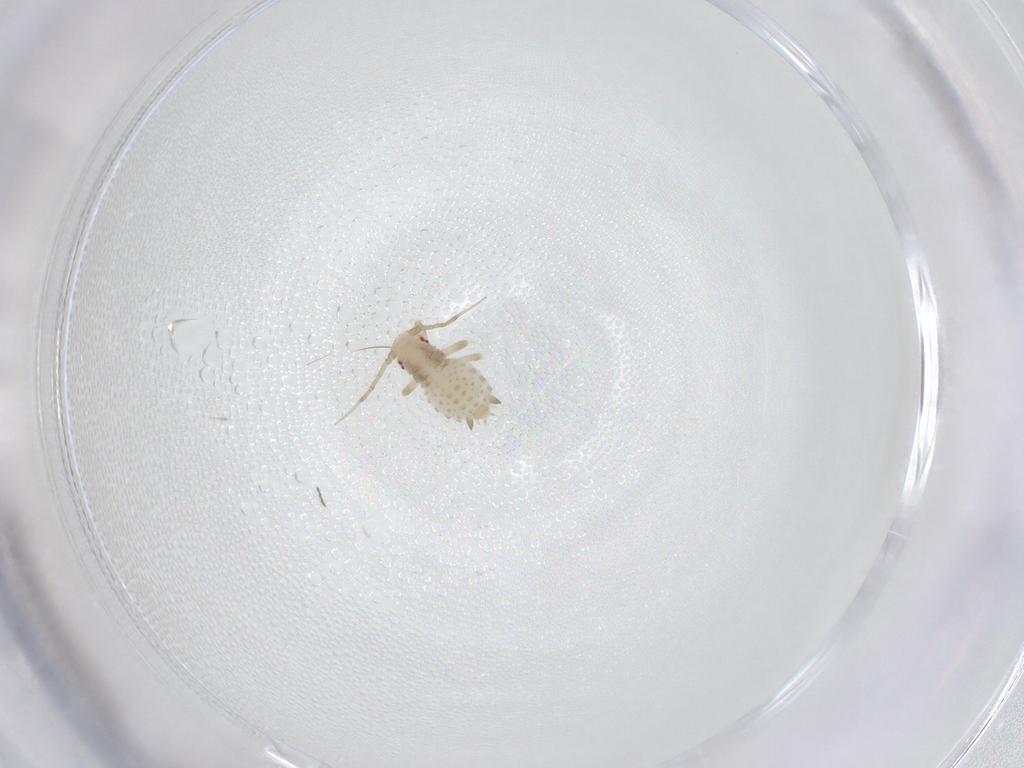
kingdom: Animalia
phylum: Arthropoda
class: Insecta
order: Hemiptera
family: Aphididae
